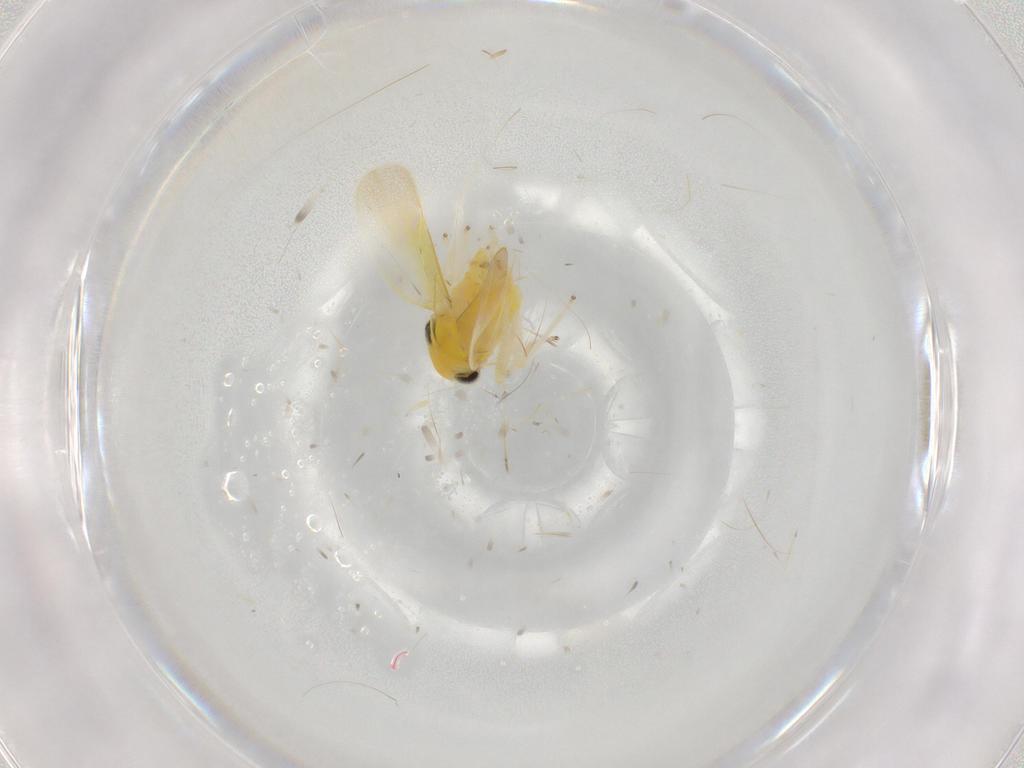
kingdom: Animalia
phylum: Arthropoda
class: Insecta
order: Hemiptera
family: Cicadellidae
